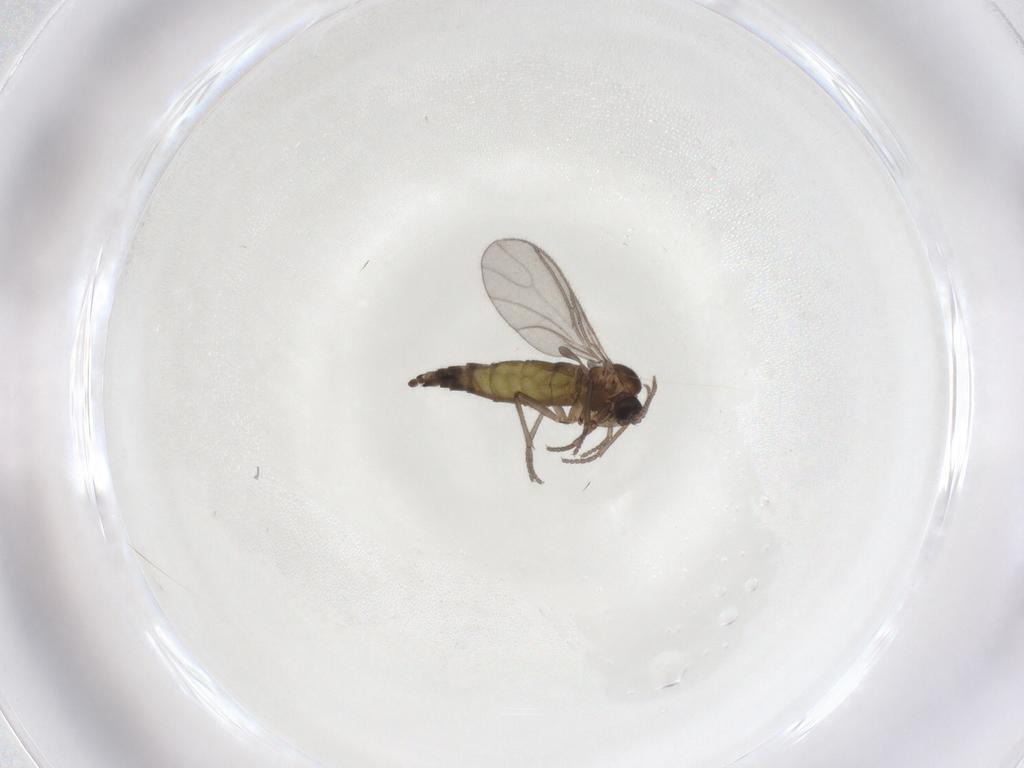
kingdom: Animalia
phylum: Arthropoda
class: Insecta
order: Diptera
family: Sciaridae
